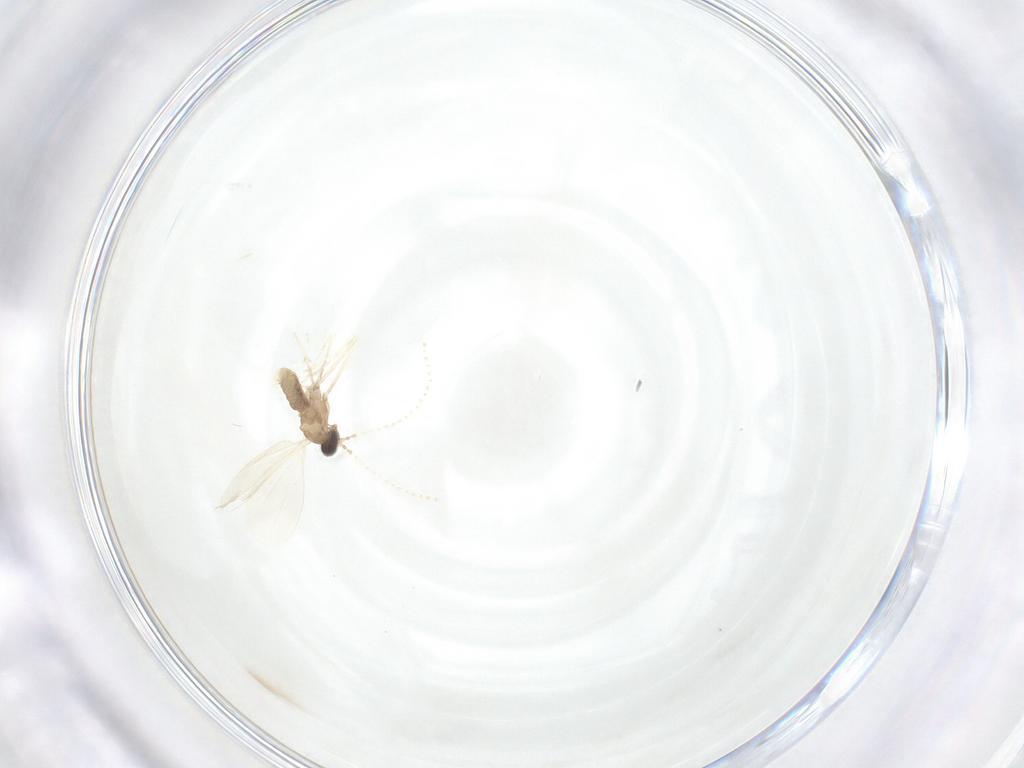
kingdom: Animalia
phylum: Arthropoda
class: Insecta
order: Diptera
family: Cecidomyiidae
